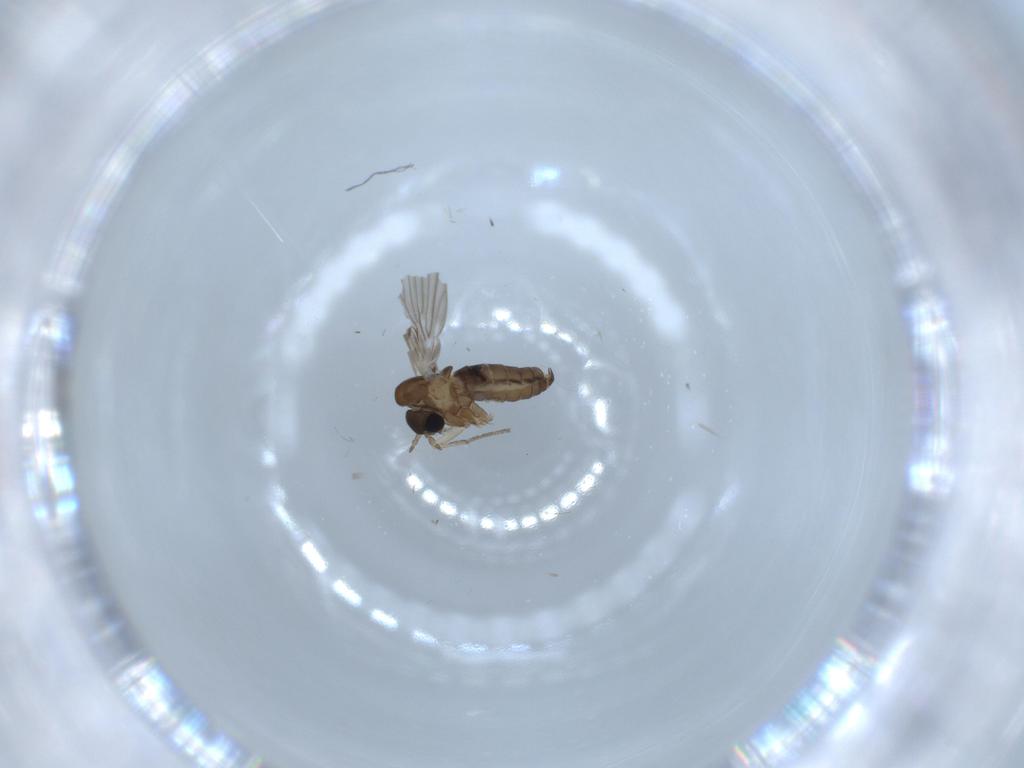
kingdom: Animalia
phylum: Arthropoda
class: Insecta
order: Diptera
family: Psychodidae
